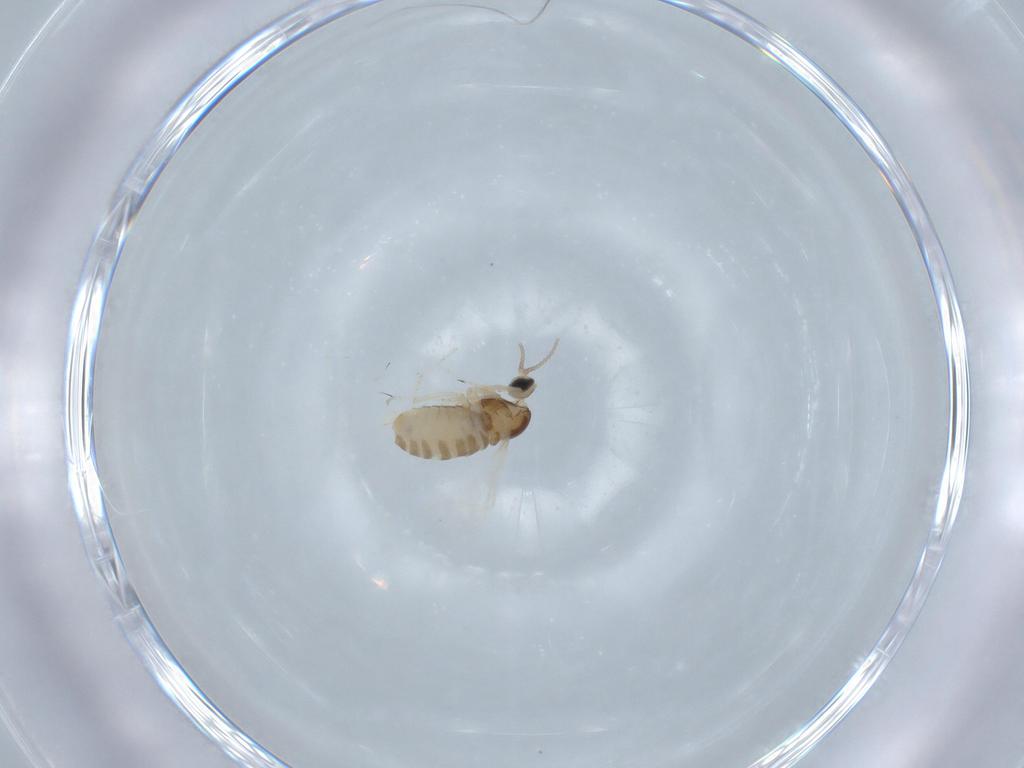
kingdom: Animalia
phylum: Arthropoda
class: Insecta
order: Diptera
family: Cecidomyiidae
